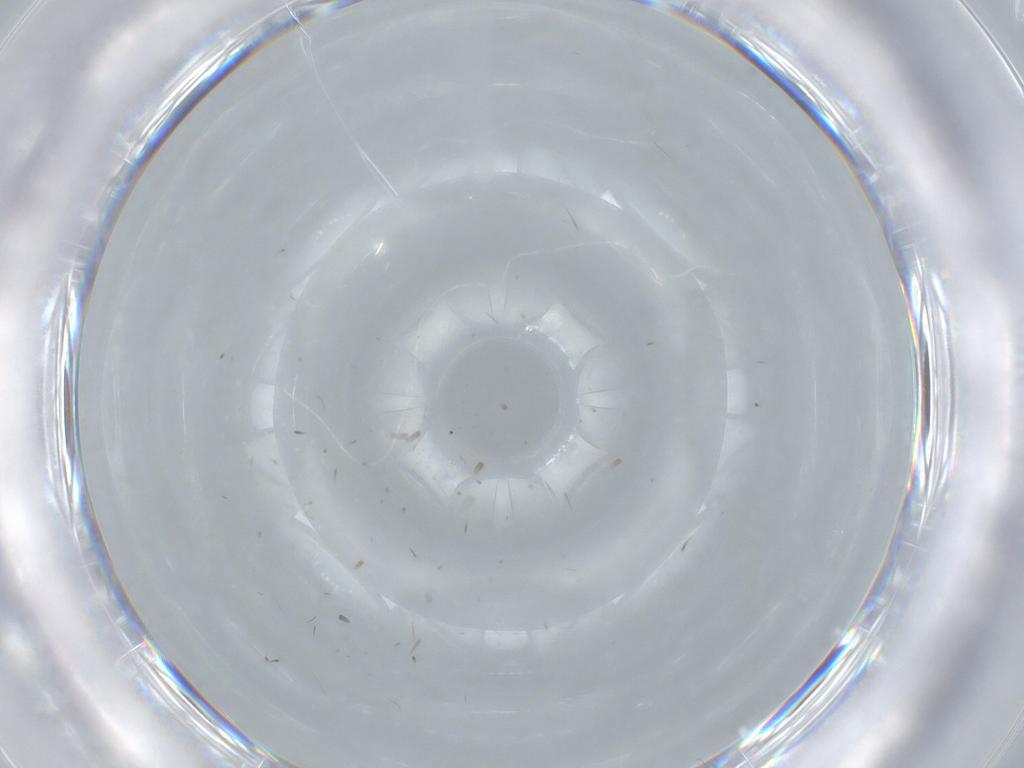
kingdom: Animalia
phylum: Arthropoda
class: Insecta
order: Diptera
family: Sciaridae
